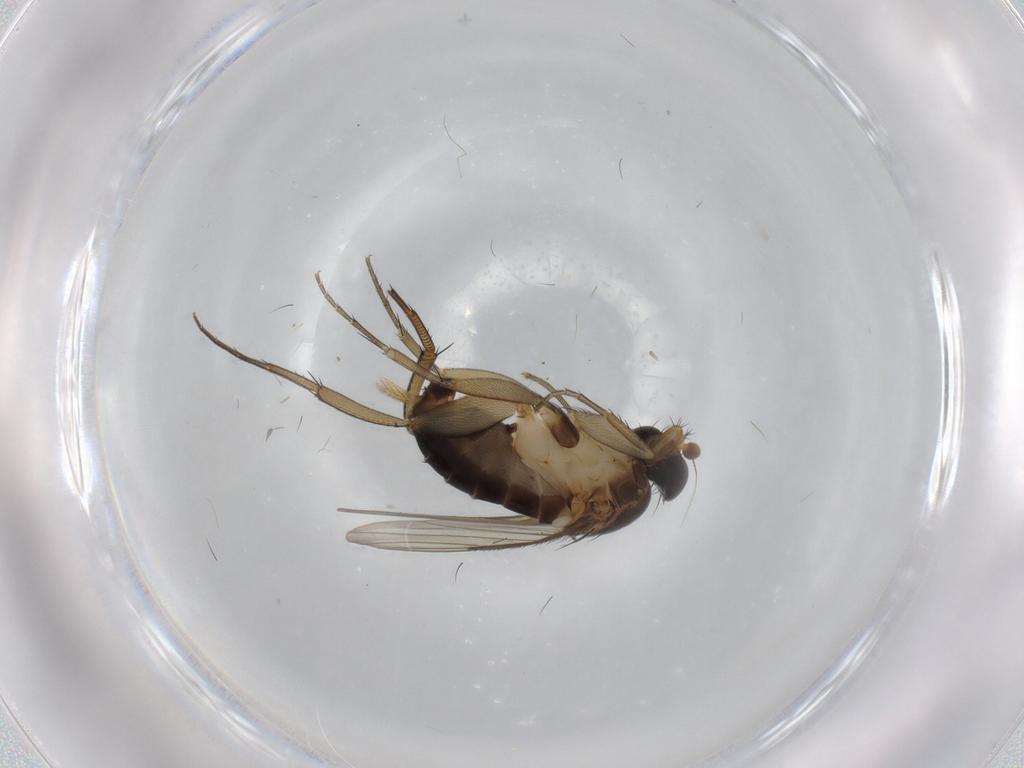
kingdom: Animalia
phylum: Arthropoda
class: Insecta
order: Diptera
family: Phoridae
